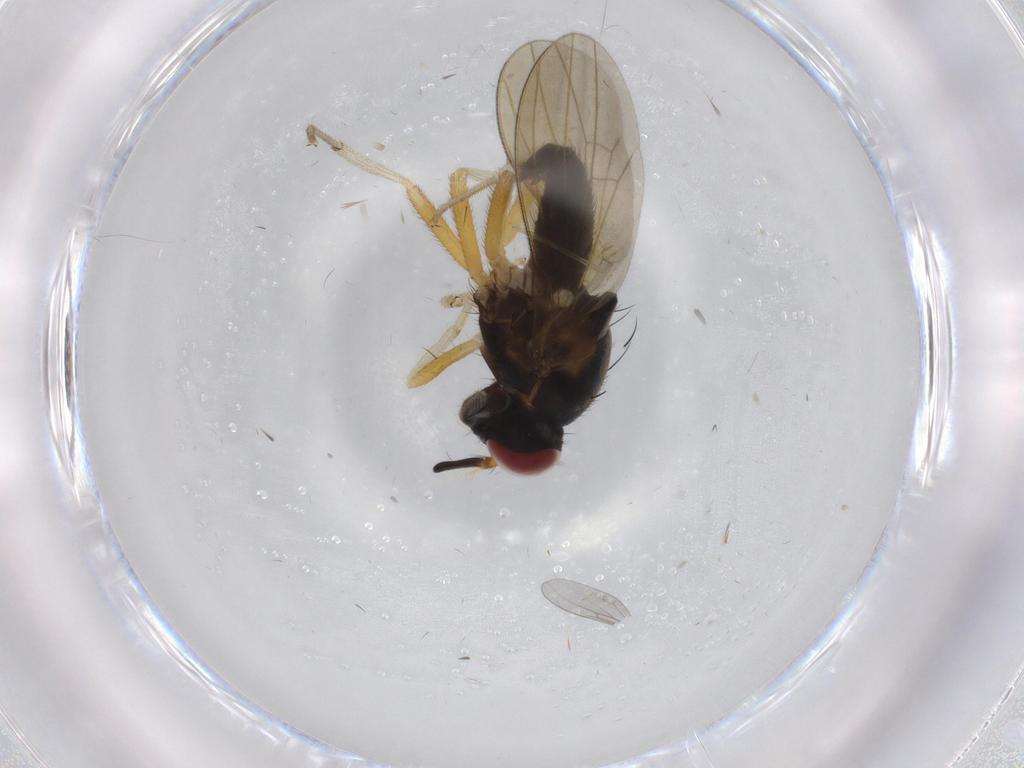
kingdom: Animalia
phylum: Arthropoda
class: Insecta
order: Diptera
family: Lauxaniidae
